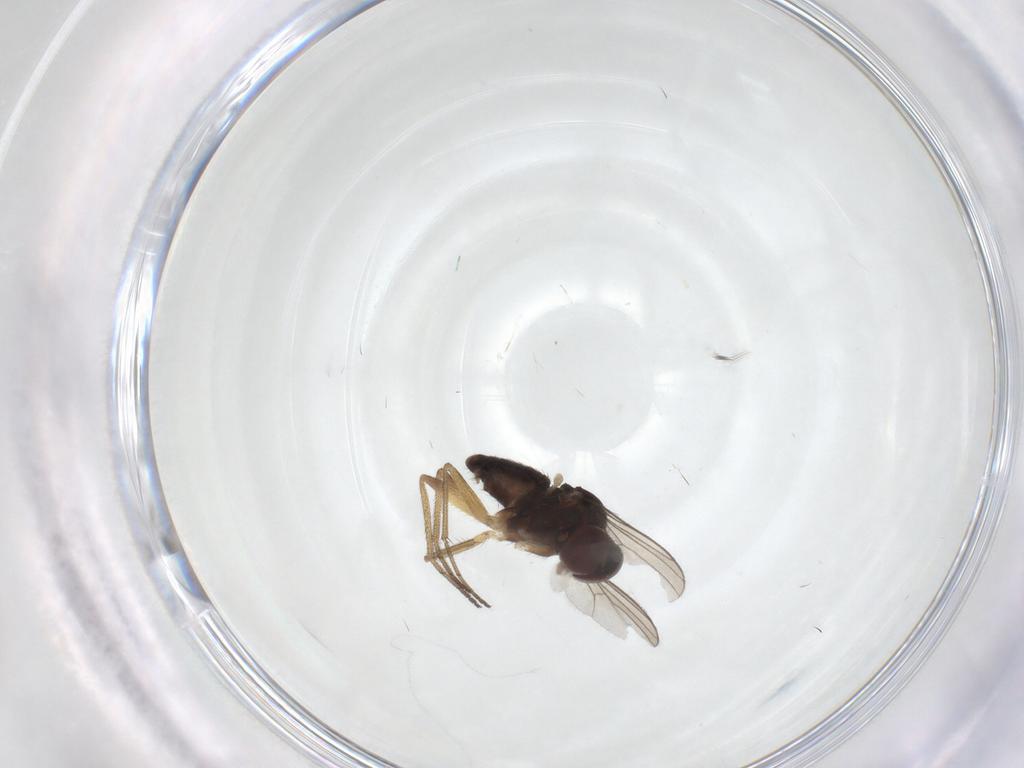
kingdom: Animalia
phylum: Arthropoda
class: Insecta
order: Diptera
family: Dolichopodidae
